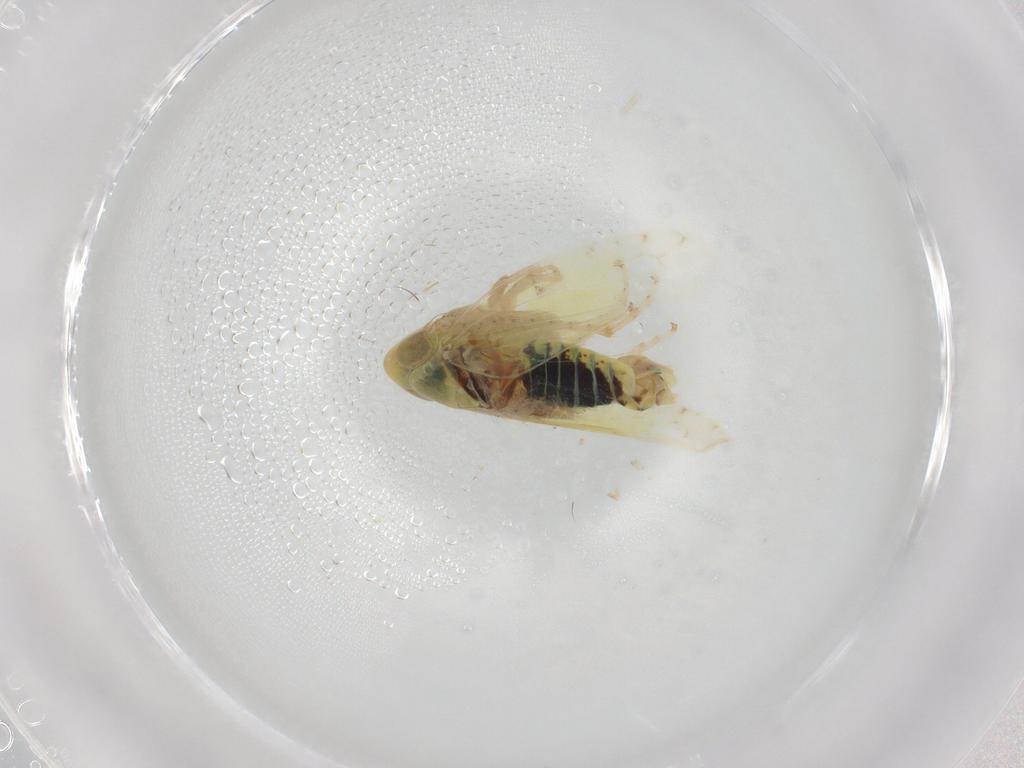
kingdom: Animalia
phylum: Arthropoda
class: Insecta
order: Hemiptera
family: Cicadellidae
